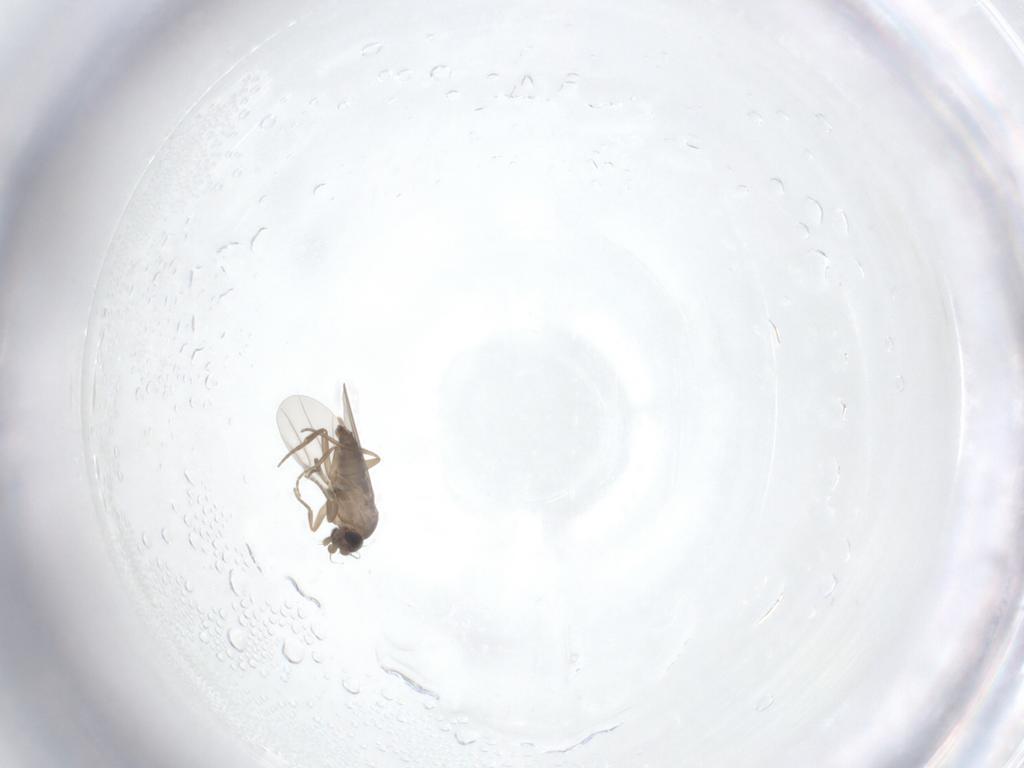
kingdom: Animalia
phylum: Arthropoda
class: Insecta
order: Diptera
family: Phoridae
